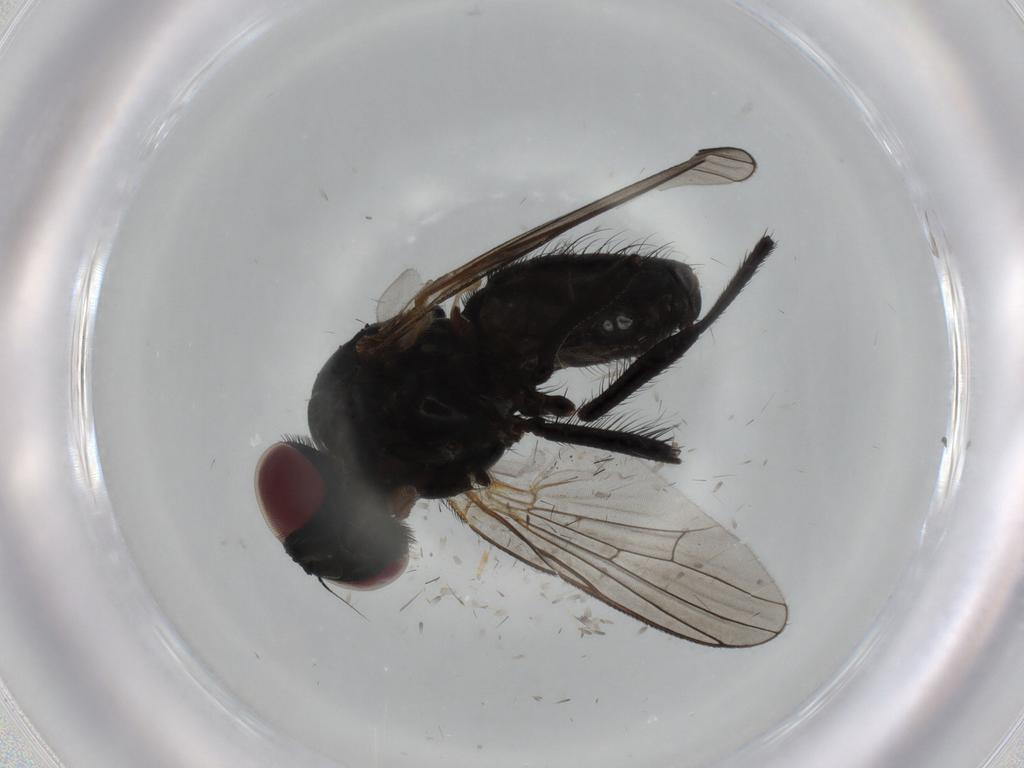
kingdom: Animalia
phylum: Arthropoda
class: Insecta
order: Diptera
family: Fannia
